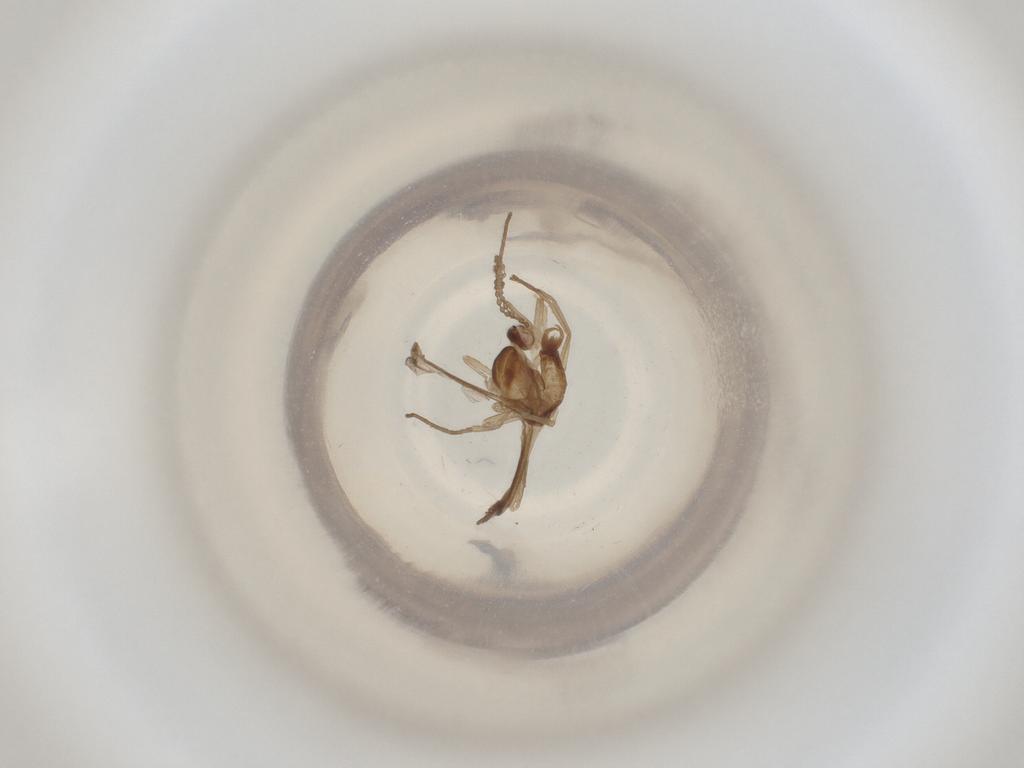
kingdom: Animalia
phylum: Arthropoda
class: Insecta
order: Diptera
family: Cecidomyiidae
